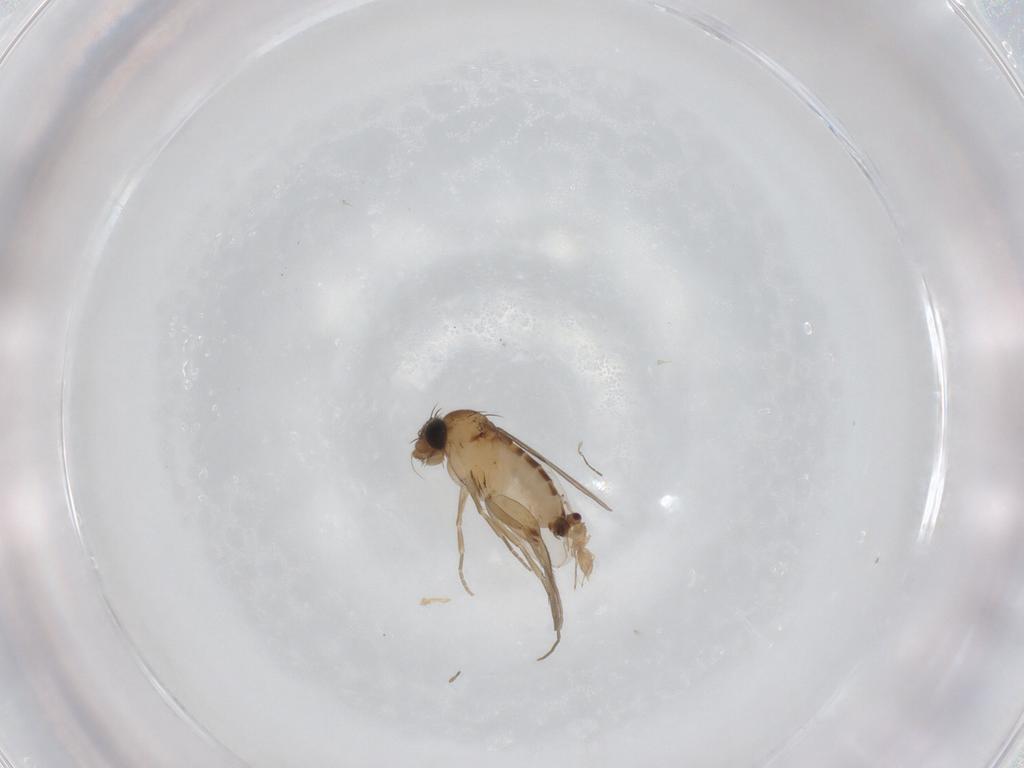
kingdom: Animalia
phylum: Arthropoda
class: Insecta
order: Diptera
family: Phoridae
